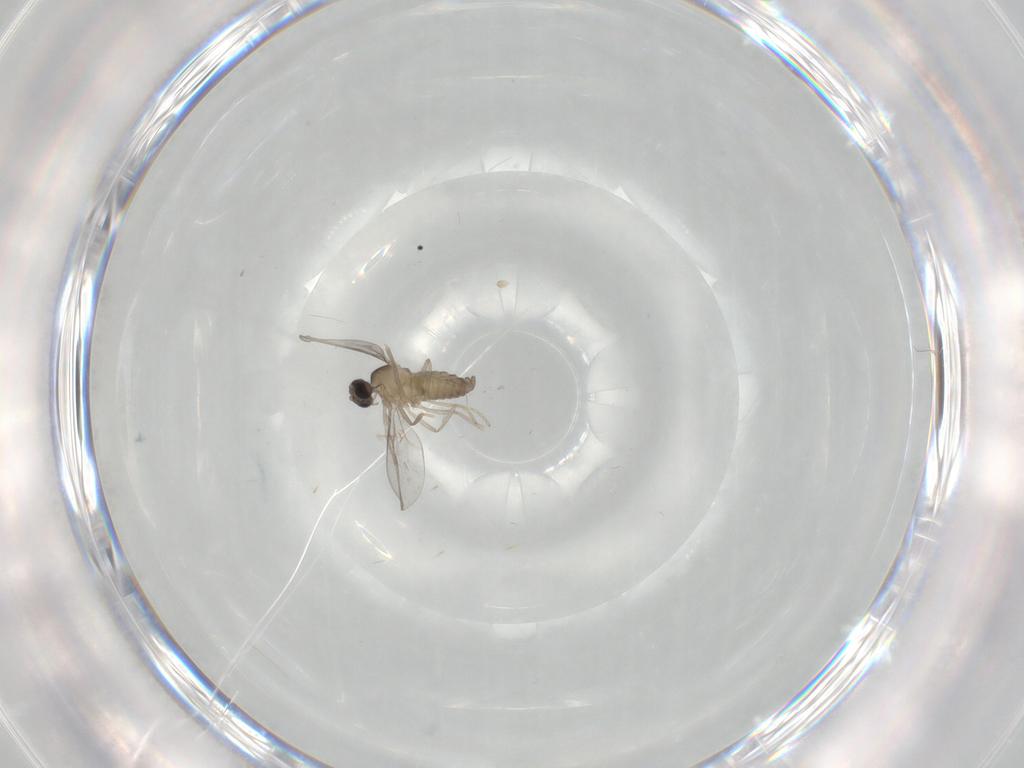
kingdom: Animalia
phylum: Arthropoda
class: Insecta
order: Diptera
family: Cecidomyiidae
